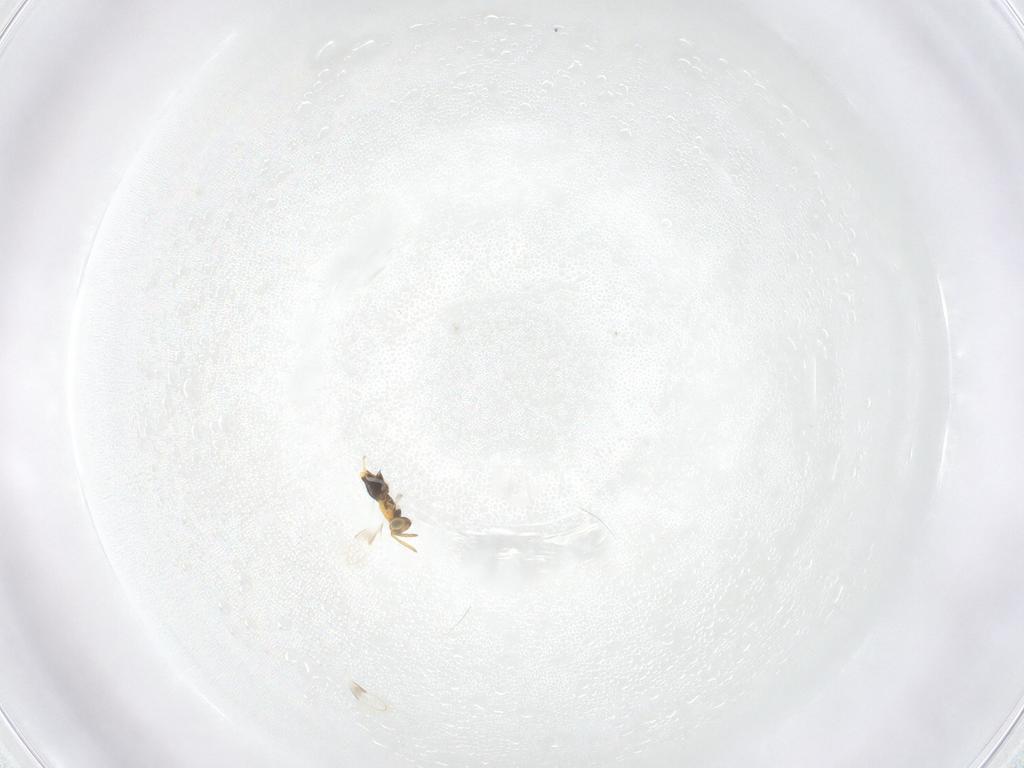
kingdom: Animalia
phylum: Arthropoda
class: Insecta
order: Hymenoptera
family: Aphelinidae
